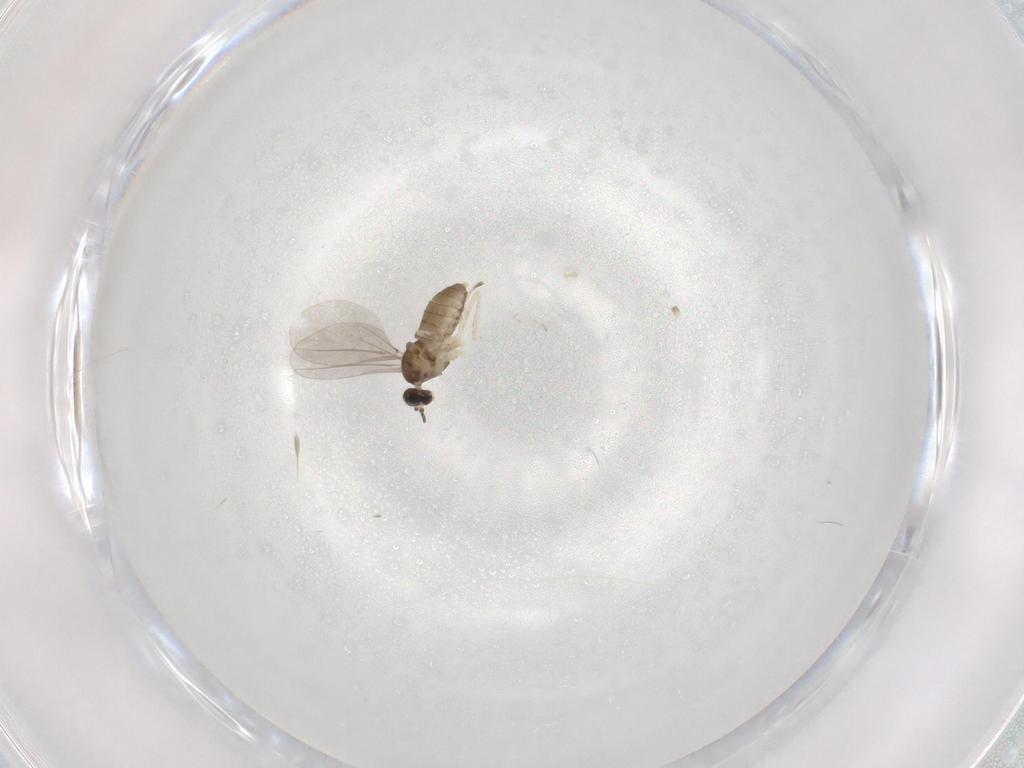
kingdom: Animalia
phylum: Arthropoda
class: Insecta
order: Diptera
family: Cecidomyiidae
